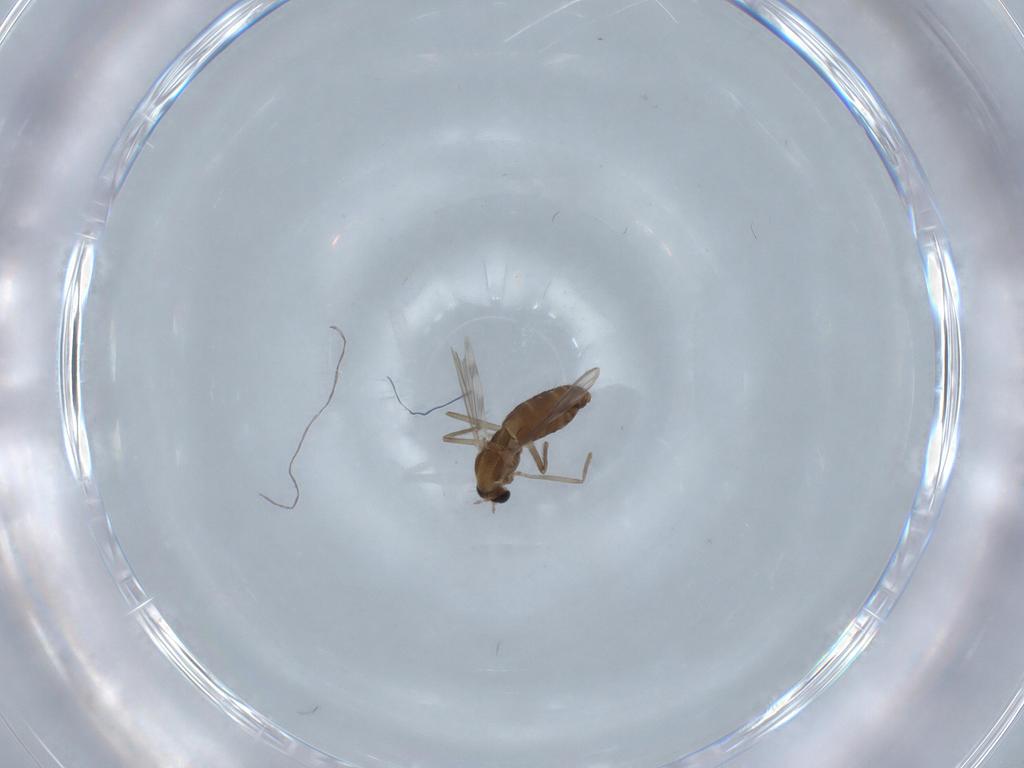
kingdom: Animalia
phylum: Arthropoda
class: Insecta
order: Diptera
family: Chironomidae
